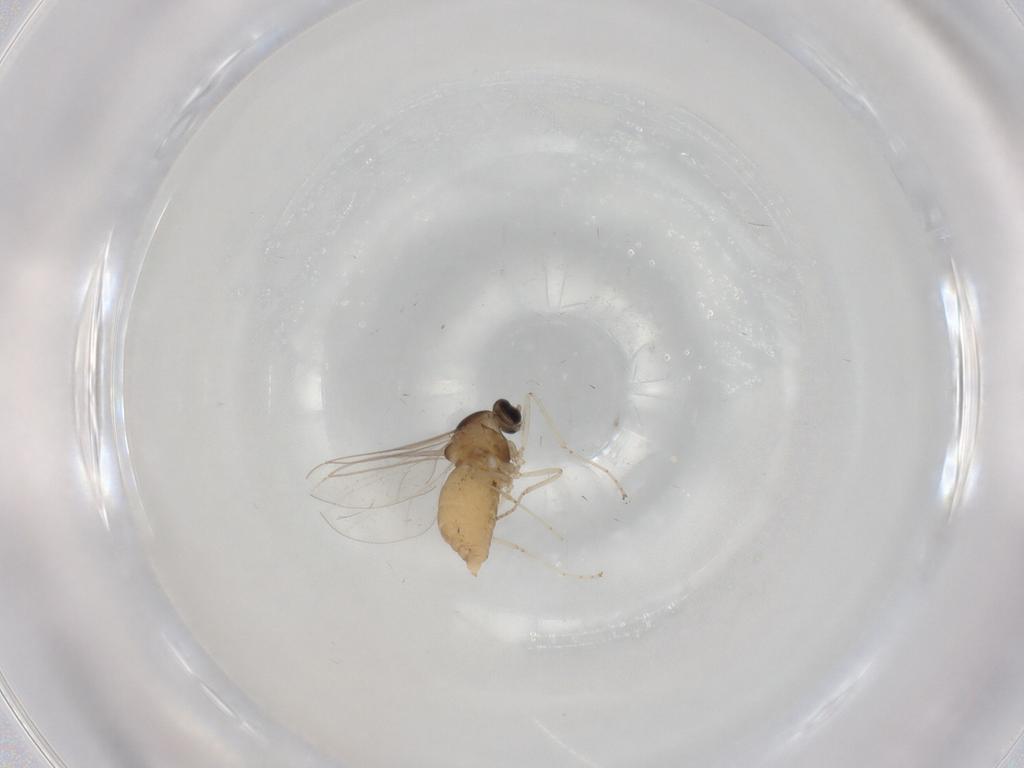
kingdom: Animalia
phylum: Arthropoda
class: Insecta
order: Diptera
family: Cecidomyiidae
